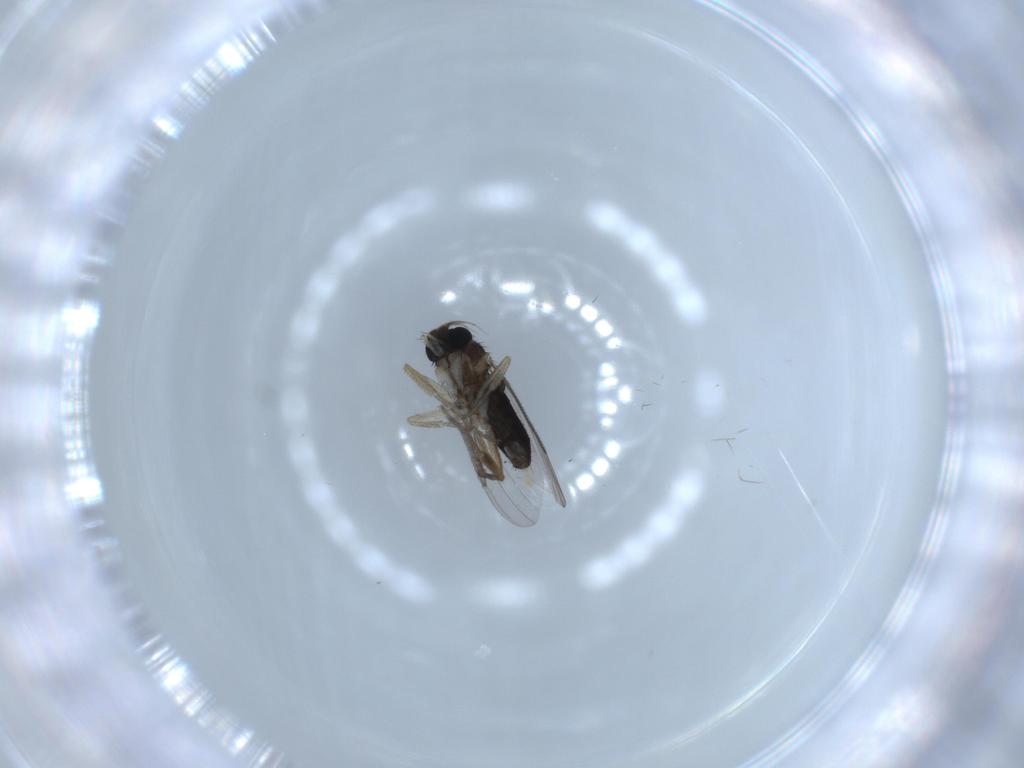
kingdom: Animalia
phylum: Arthropoda
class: Insecta
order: Diptera
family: Phoridae
